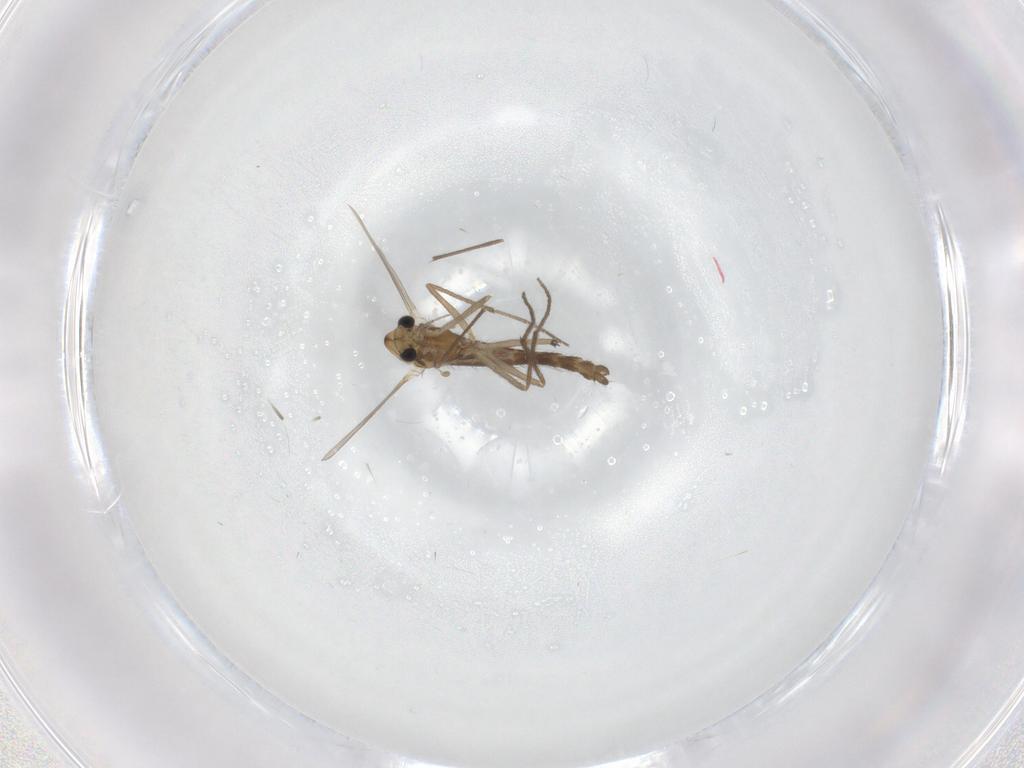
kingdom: Animalia
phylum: Arthropoda
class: Insecta
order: Diptera
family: Chironomidae
